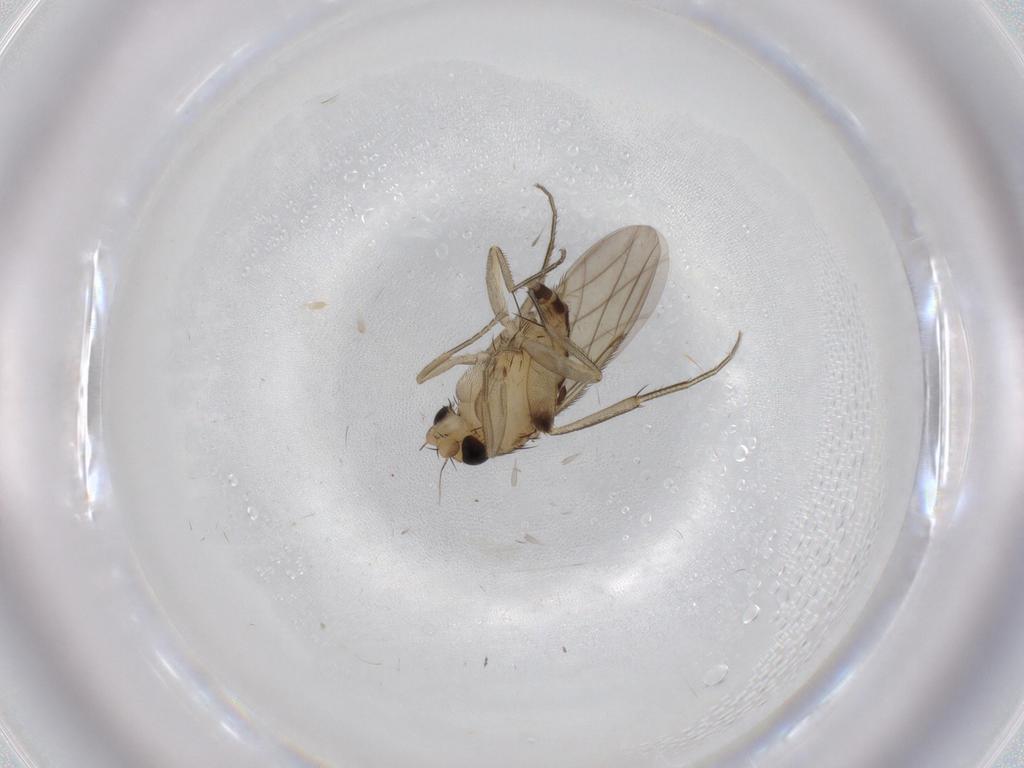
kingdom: Animalia
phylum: Arthropoda
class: Insecta
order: Diptera
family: Phoridae
